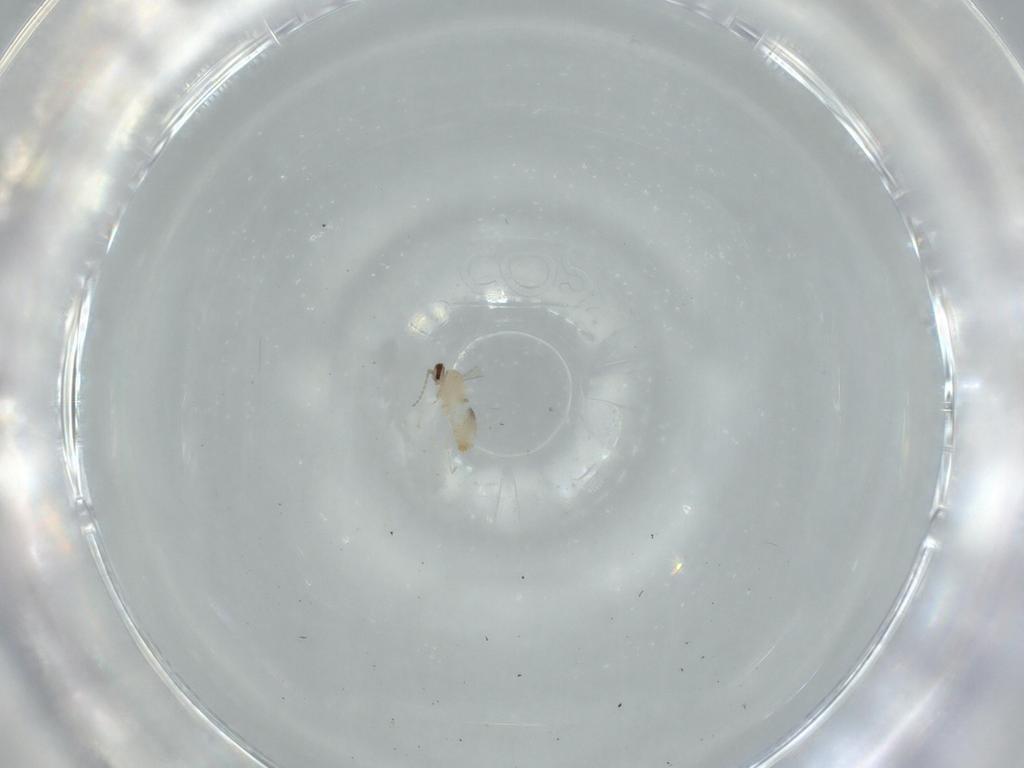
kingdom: Animalia
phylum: Arthropoda
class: Insecta
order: Diptera
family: Cecidomyiidae
